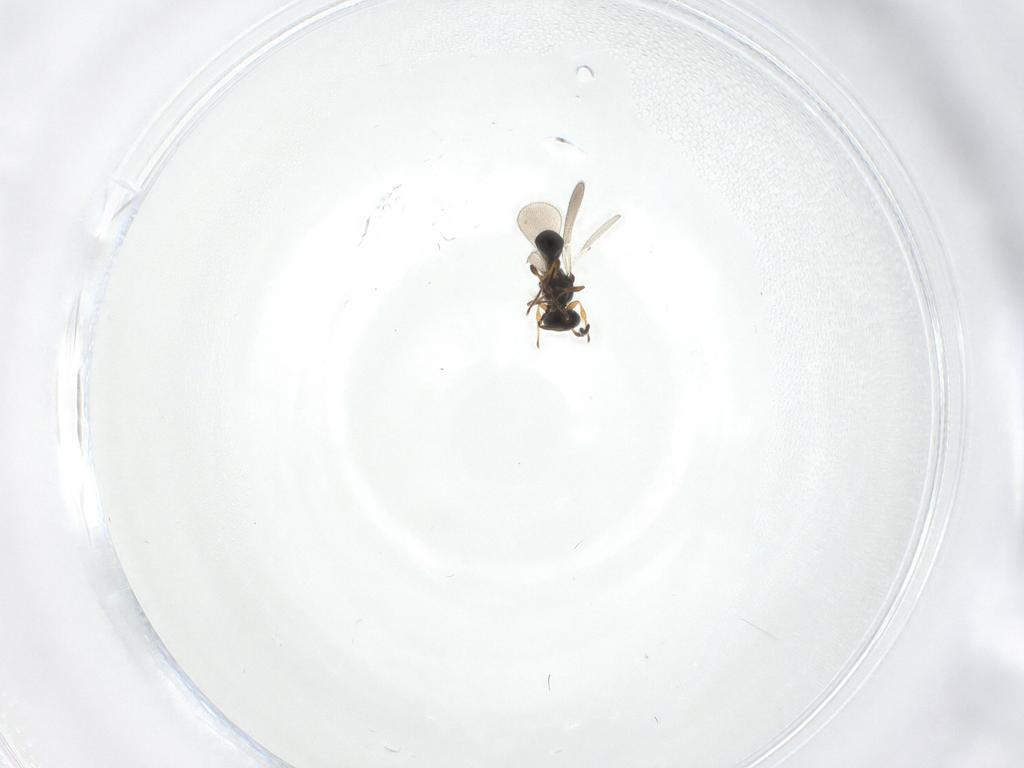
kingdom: Animalia
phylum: Arthropoda
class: Insecta
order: Hymenoptera
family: Platygastridae
